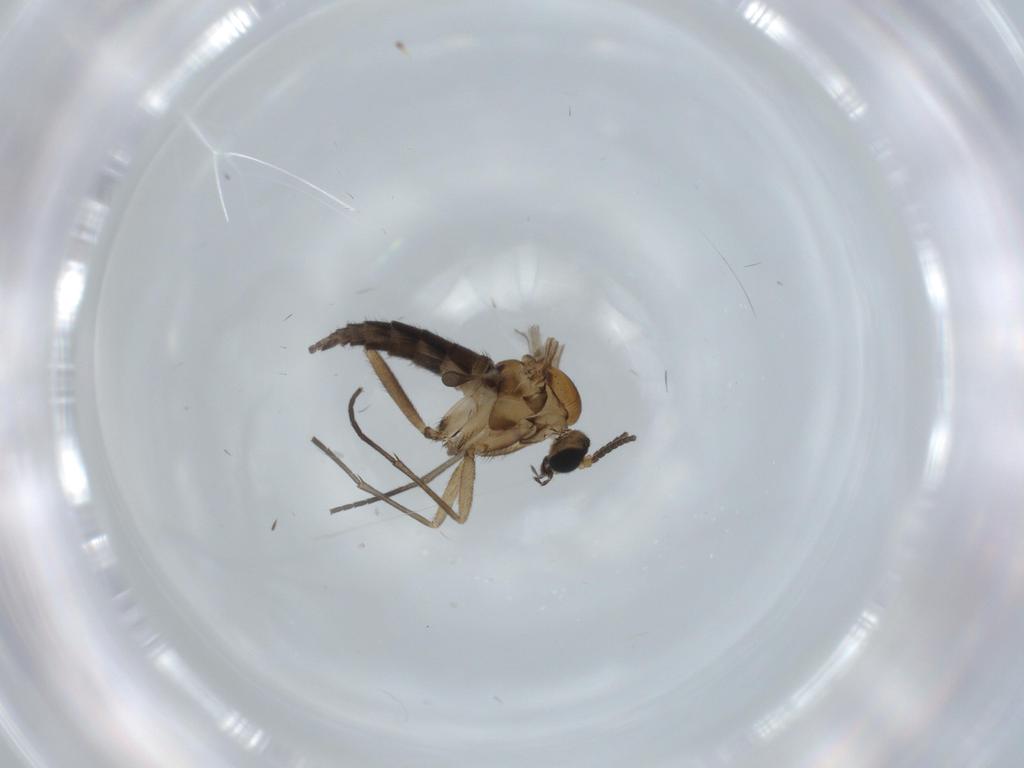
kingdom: Animalia
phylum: Arthropoda
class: Insecta
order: Diptera
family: Sciaridae
